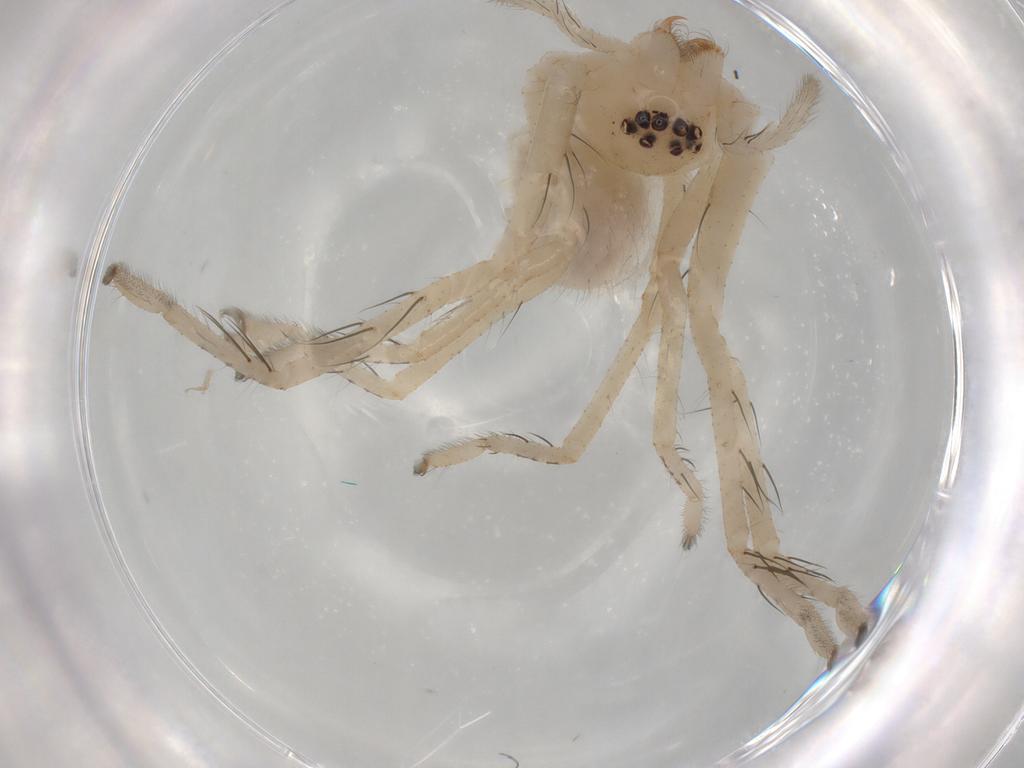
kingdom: Animalia
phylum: Arthropoda
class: Arachnida
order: Araneae
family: Sparassidae
